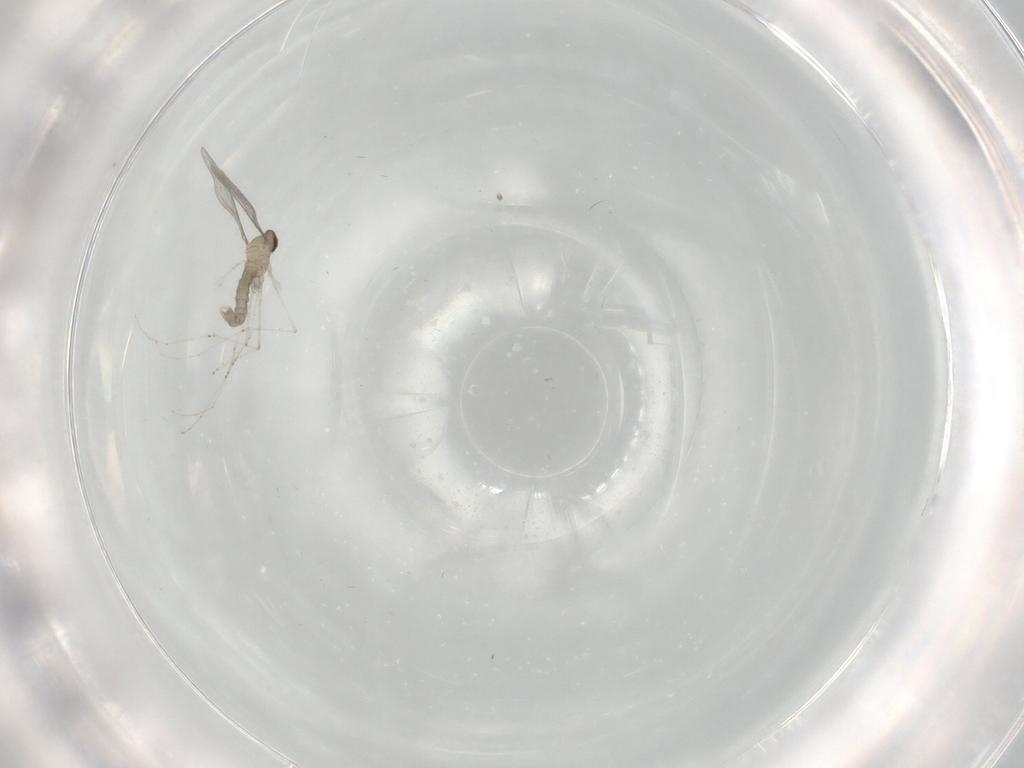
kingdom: Animalia
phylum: Arthropoda
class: Insecta
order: Diptera
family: Cecidomyiidae
